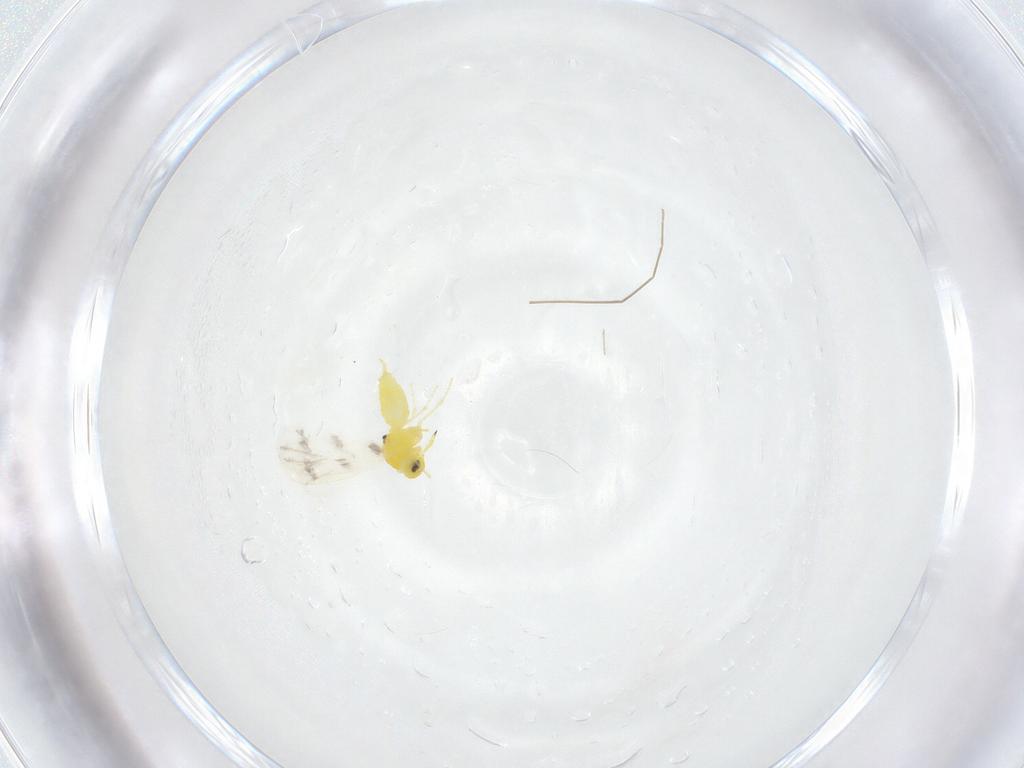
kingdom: Animalia
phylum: Arthropoda
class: Insecta
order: Hemiptera
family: Aleyrodidae
